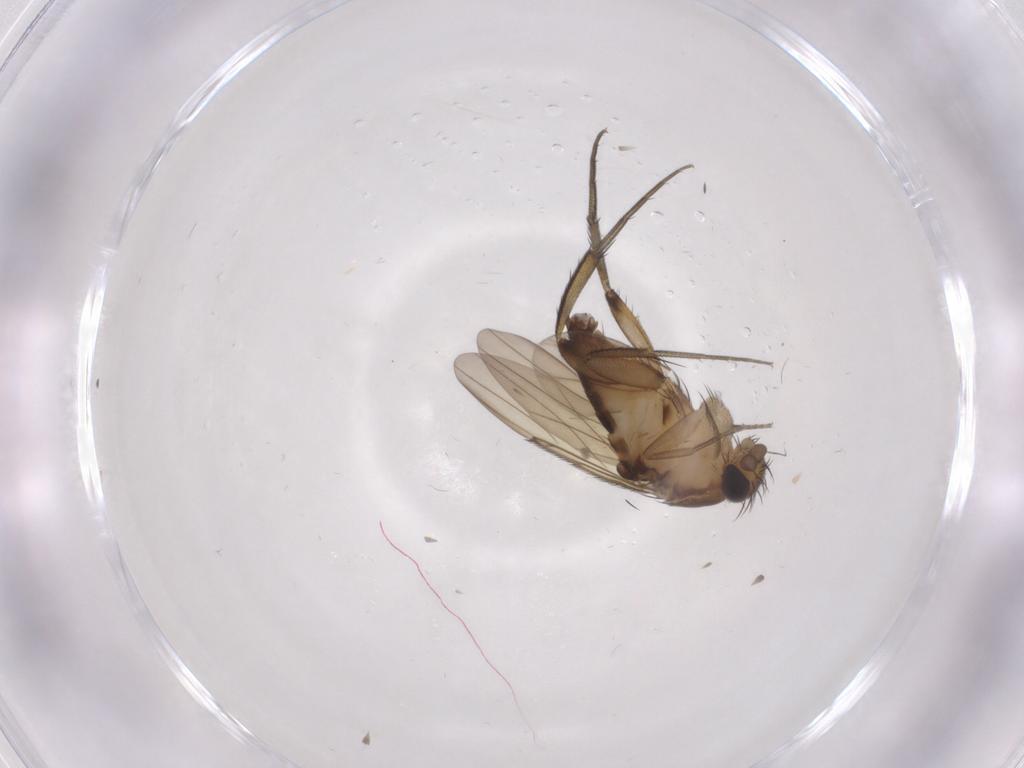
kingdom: Animalia
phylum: Arthropoda
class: Insecta
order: Diptera
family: Phoridae
